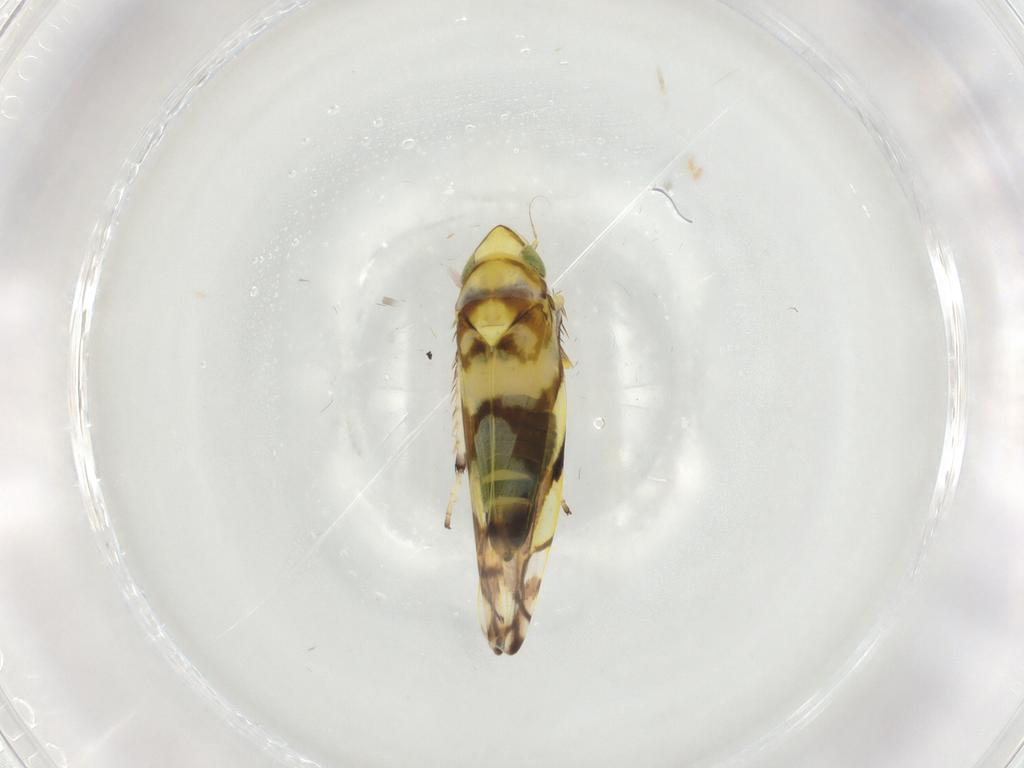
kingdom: Animalia
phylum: Arthropoda
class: Insecta
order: Hemiptera
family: Cicadellidae
